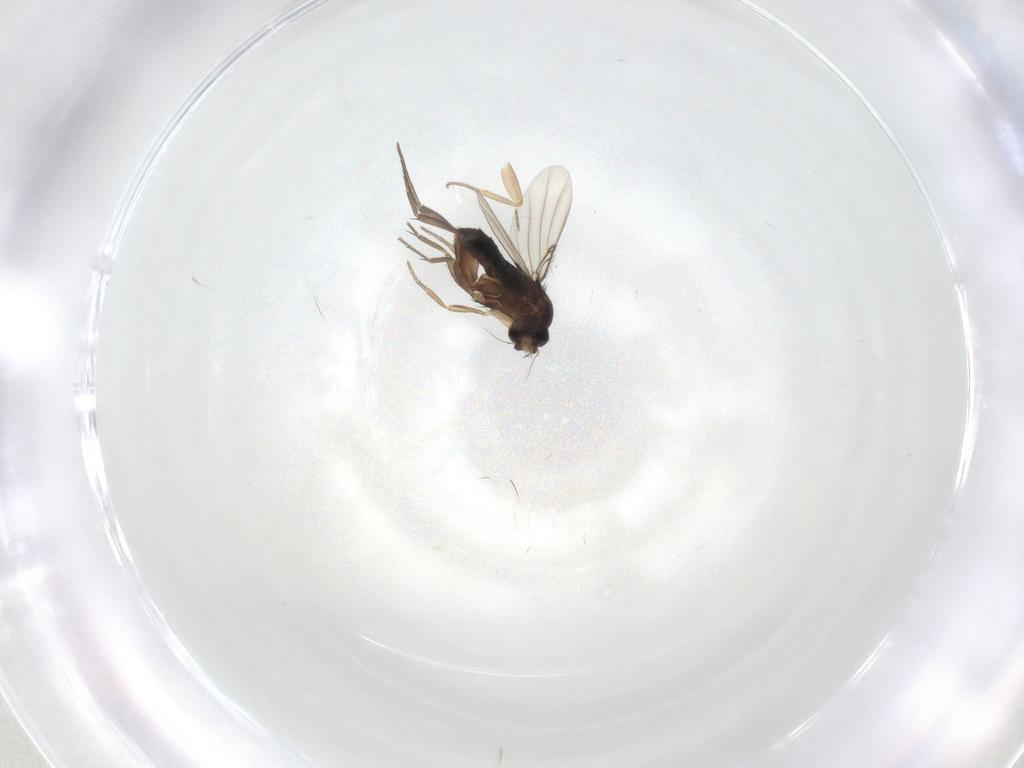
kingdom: Animalia
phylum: Arthropoda
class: Insecta
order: Diptera
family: Phoridae
